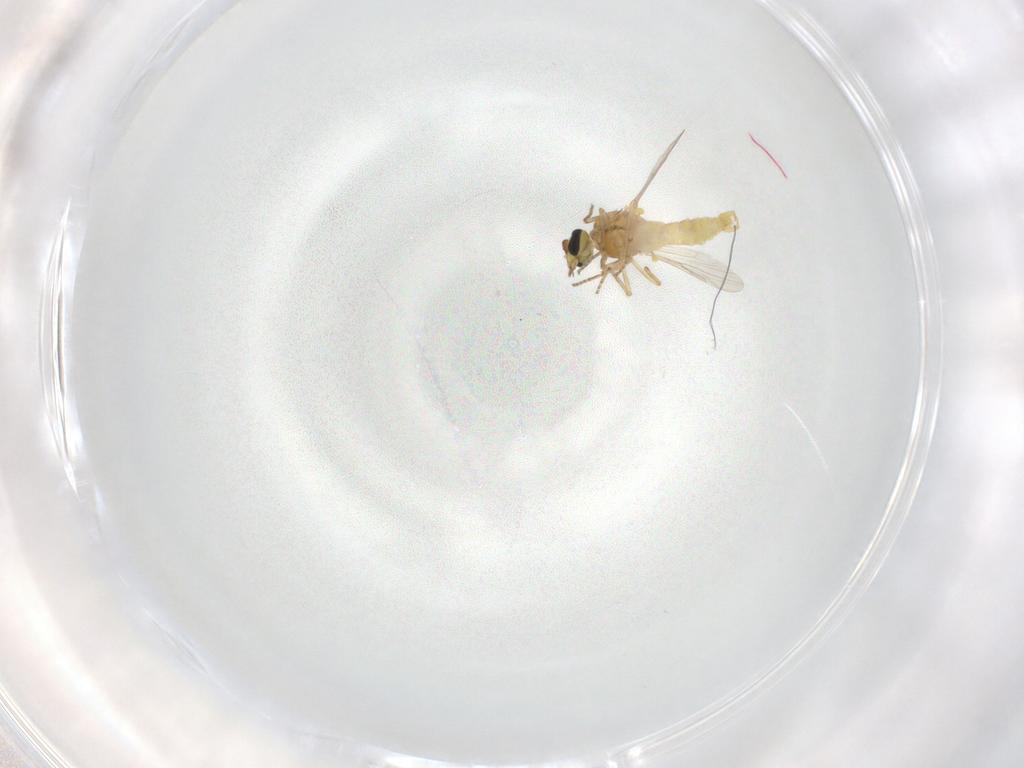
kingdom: Animalia
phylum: Arthropoda
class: Insecta
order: Diptera
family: Ceratopogonidae
